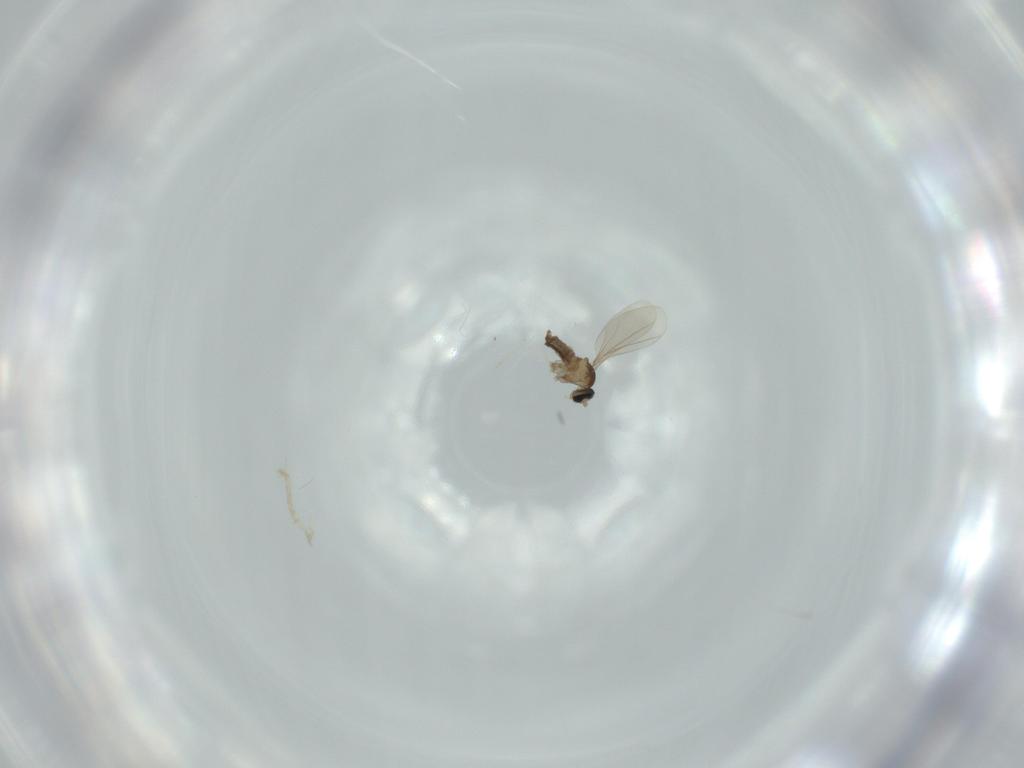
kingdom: Animalia
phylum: Arthropoda
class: Insecta
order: Diptera
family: Cecidomyiidae
